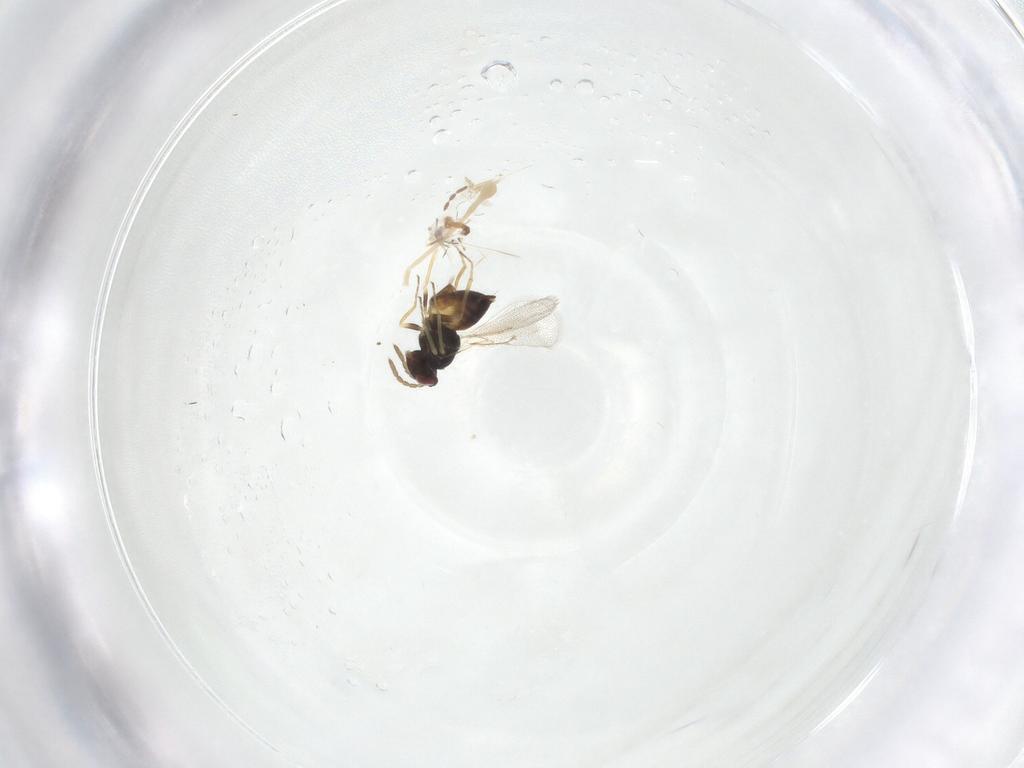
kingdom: Animalia
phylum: Arthropoda
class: Insecta
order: Hymenoptera
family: Eulophidae
